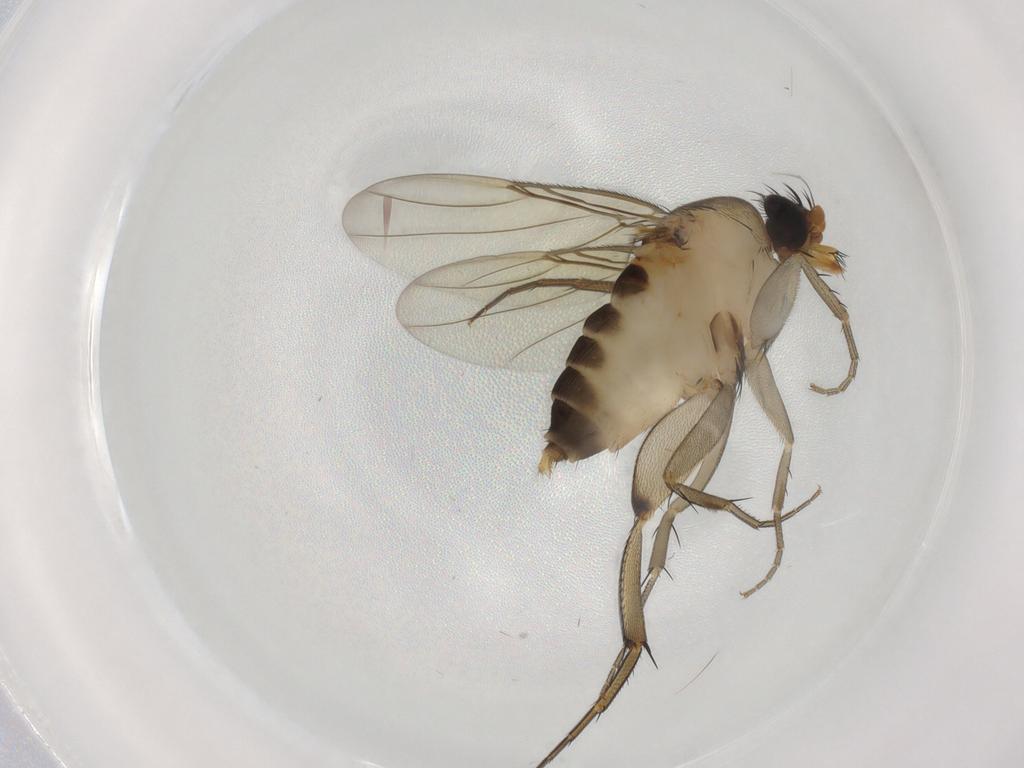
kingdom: Animalia
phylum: Arthropoda
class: Insecta
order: Diptera
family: Phoridae
